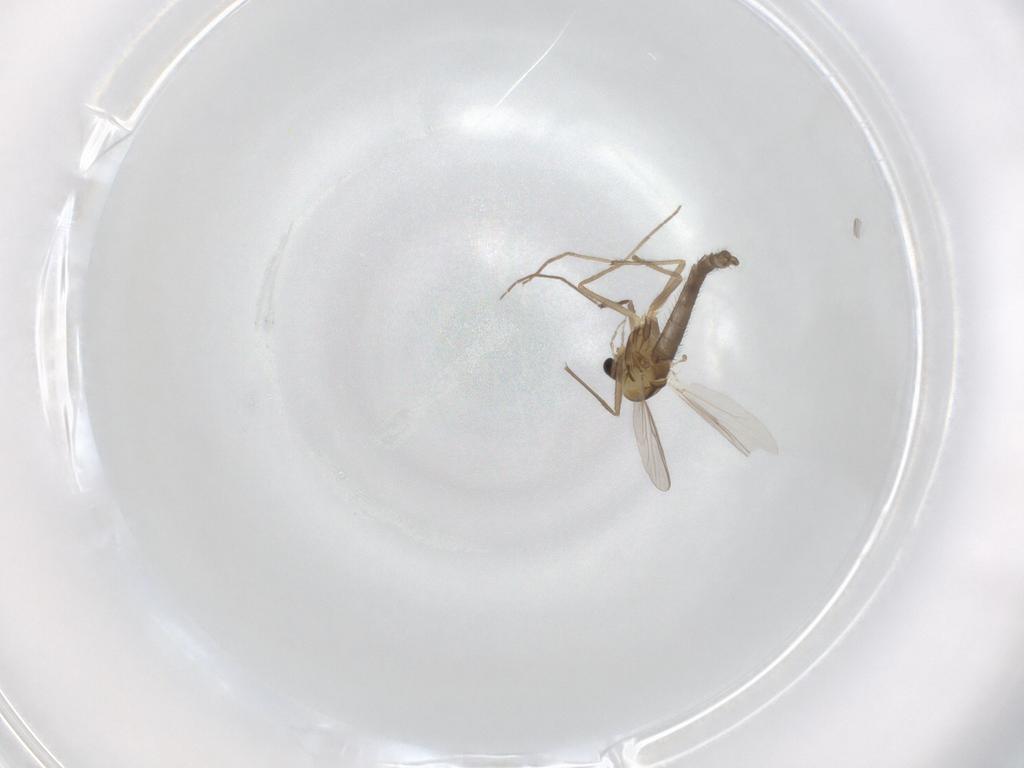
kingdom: Animalia
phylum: Arthropoda
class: Insecta
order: Diptera
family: Chironomidae
